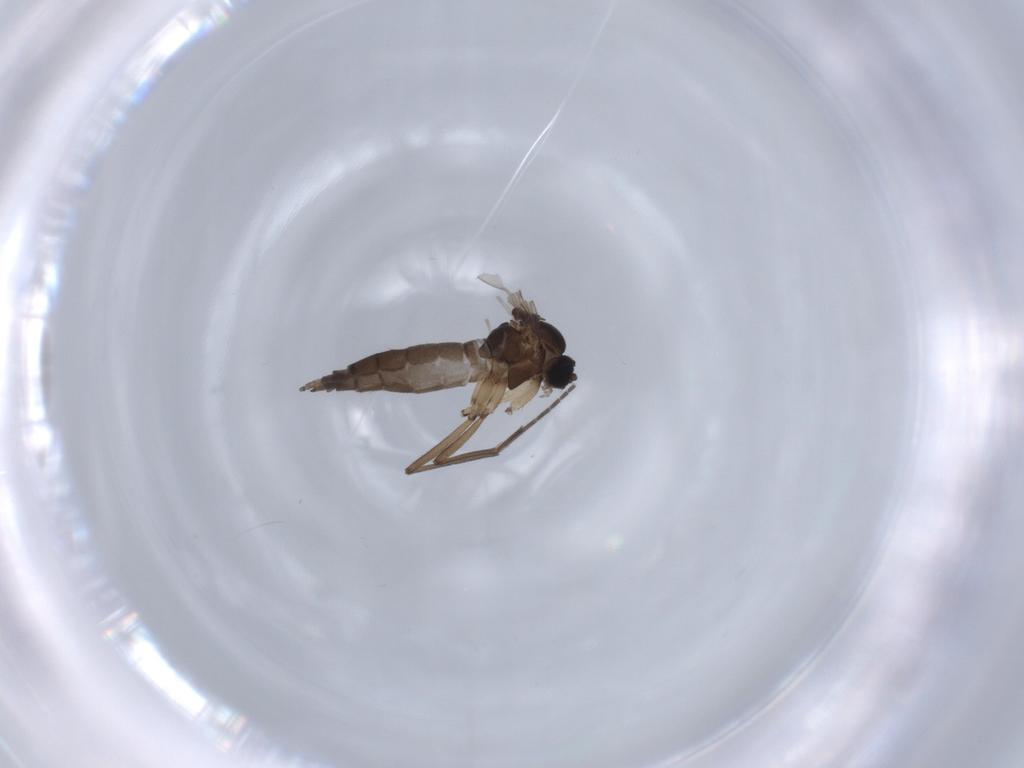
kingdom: Animalia
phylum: Arthropoda
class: Insecta
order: Diptera
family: Sciaridae
